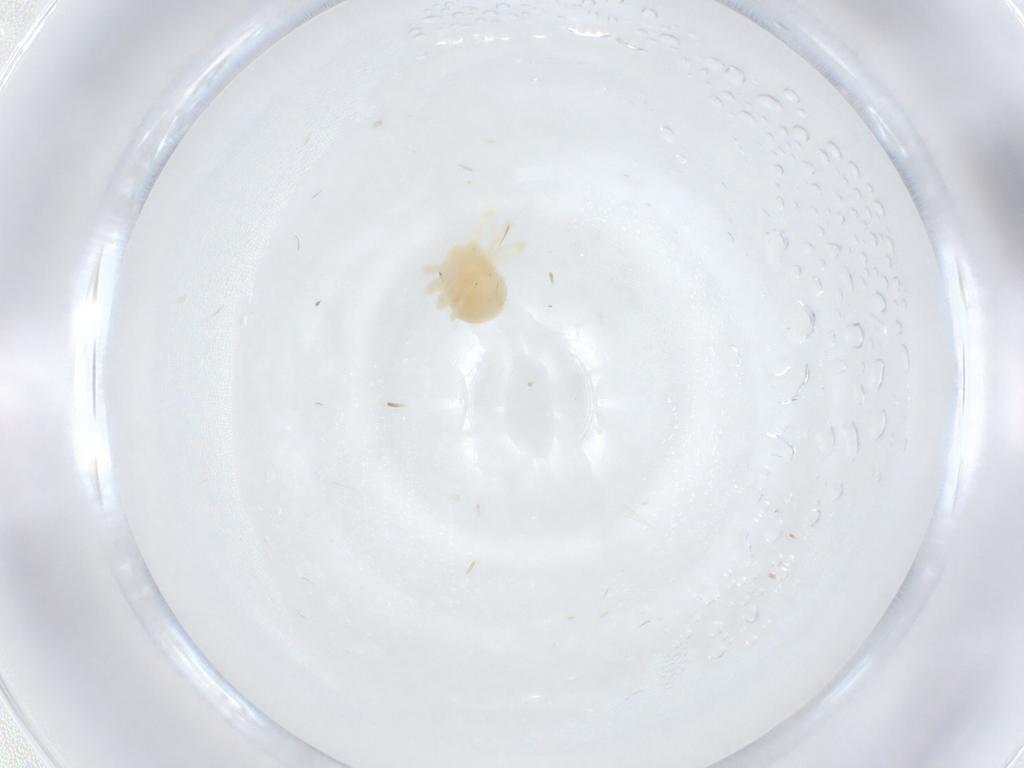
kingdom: Animalia
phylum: Arthropoda
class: Arachnida
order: Trombidiformes
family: Anystidae
